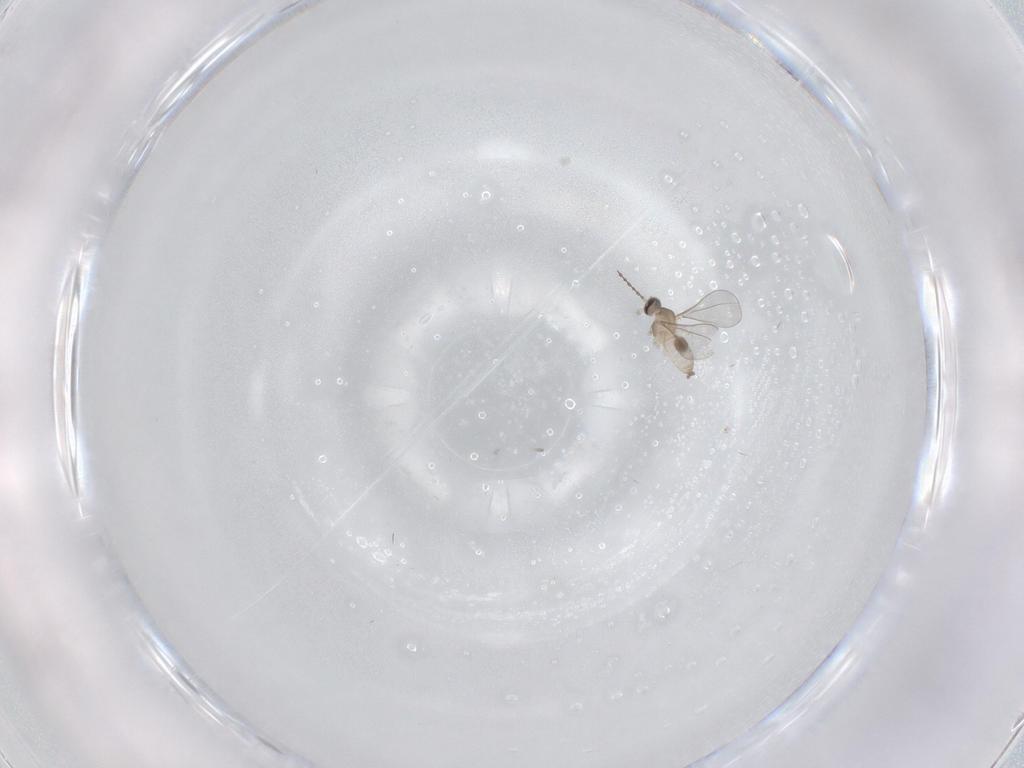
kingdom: Animalia
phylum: Arthropoda
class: Insecta
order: Diptera
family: Cecidomyiidae
